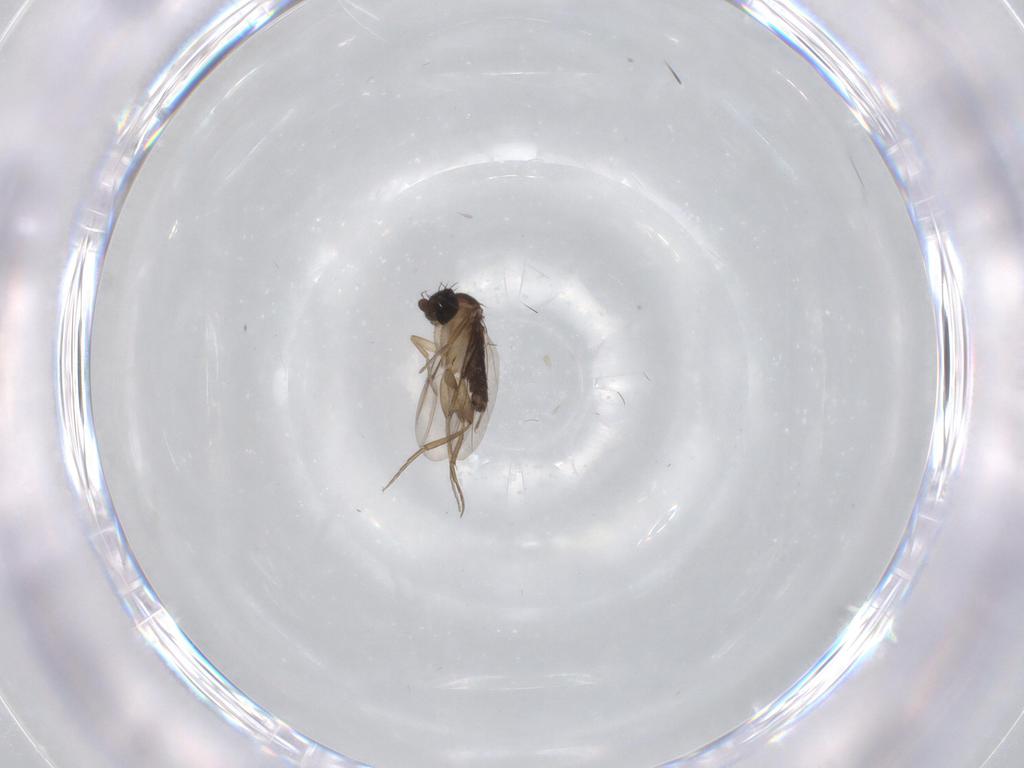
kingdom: Animalia
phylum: Arthropoda
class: Insecta
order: Diptera
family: Phoridae
